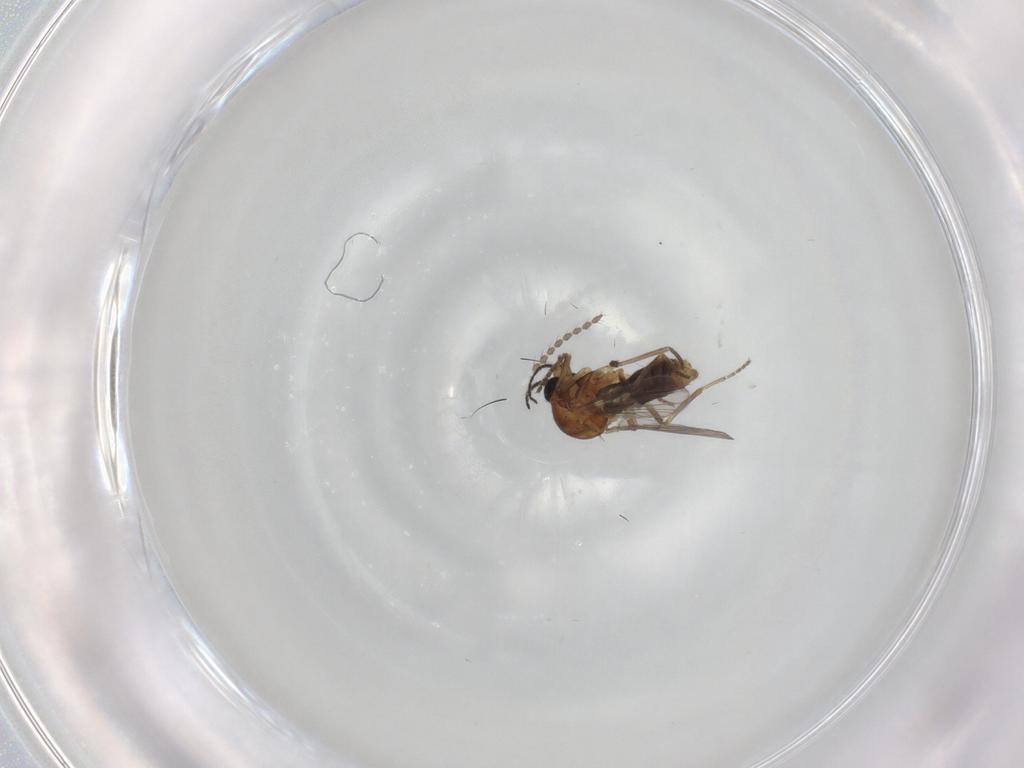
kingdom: Animalia
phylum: Arthropoda
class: Insecta
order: Diptera
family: Ceratopogonidae
